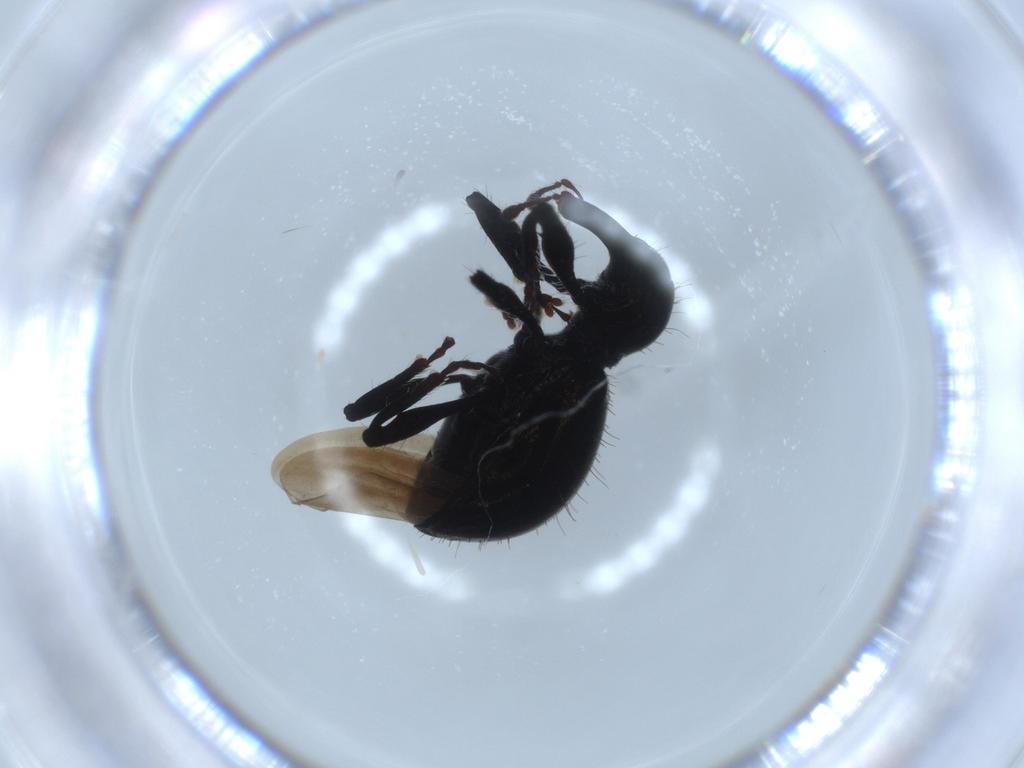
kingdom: Animalia
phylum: Arthropoda
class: Insecta
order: Coleoptera
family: Curculionidae
